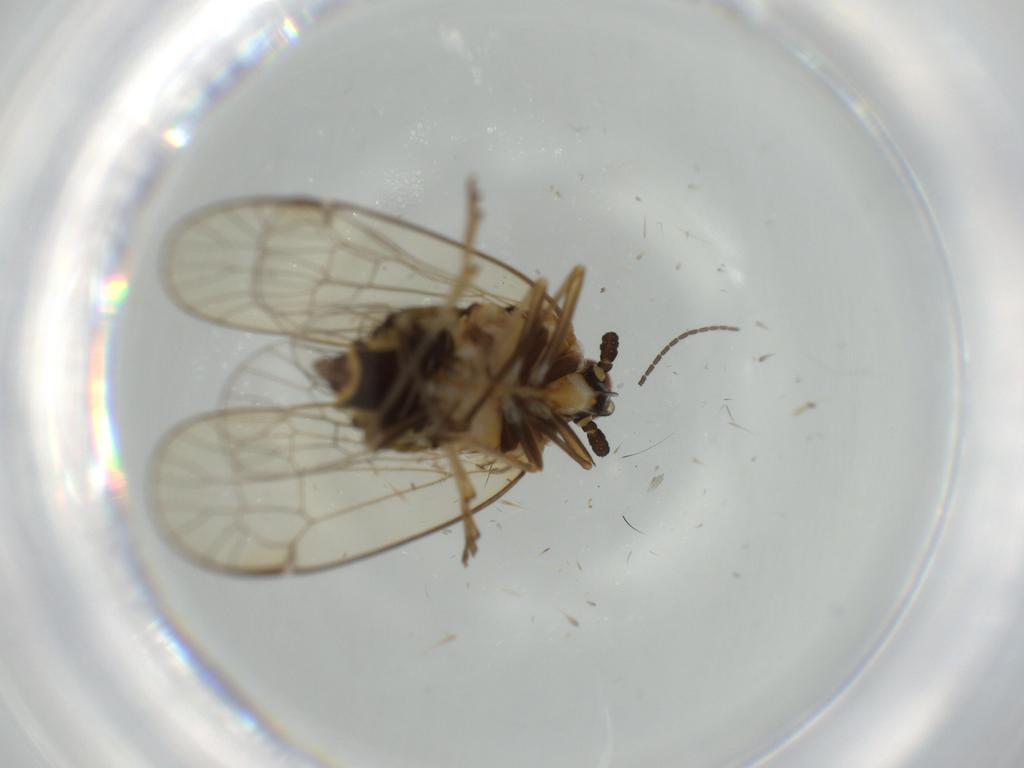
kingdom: Animalia
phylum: Arthropoda
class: Insecta
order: Hemiptera
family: Kinnaridae
